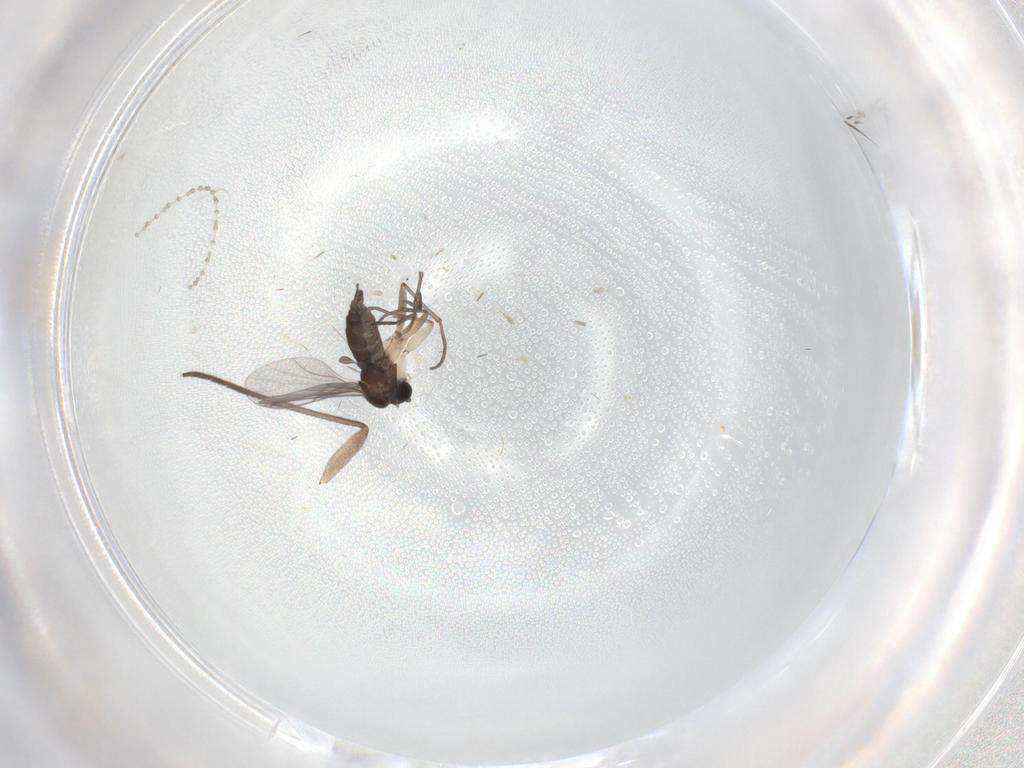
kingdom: Animalia
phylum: Arthropoda
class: Insecta
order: Diptera
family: Cecidomyiidae
